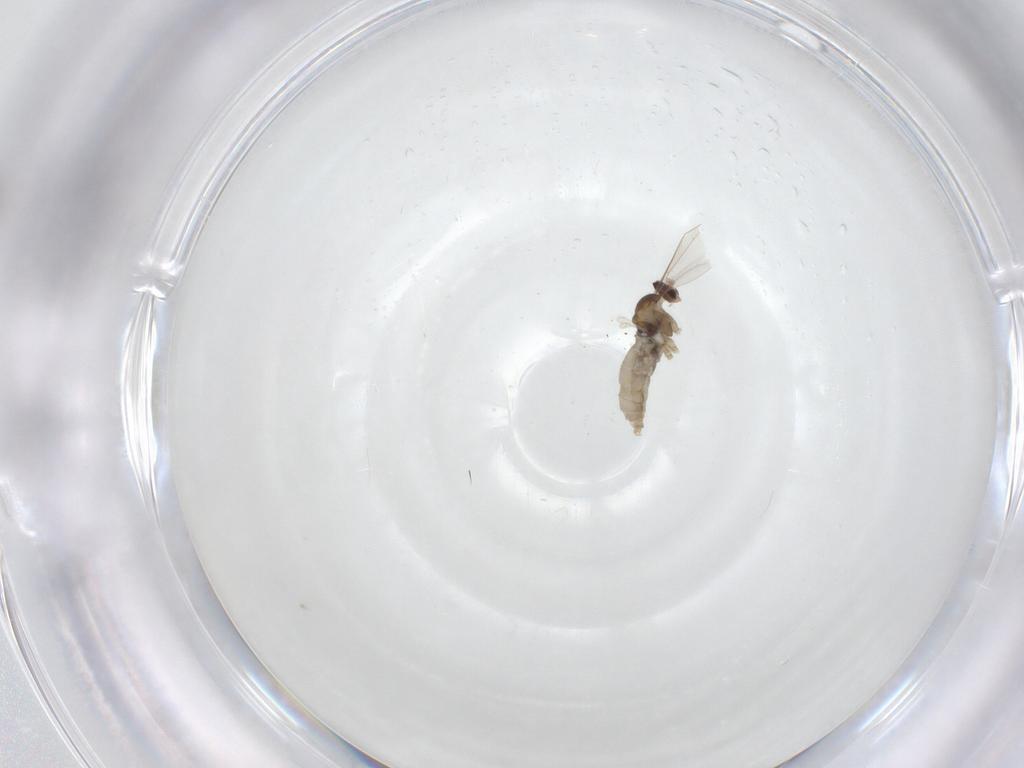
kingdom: Animalia
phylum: Arthropoda
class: Insecta
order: Diptera
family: Cecidomyiidae
